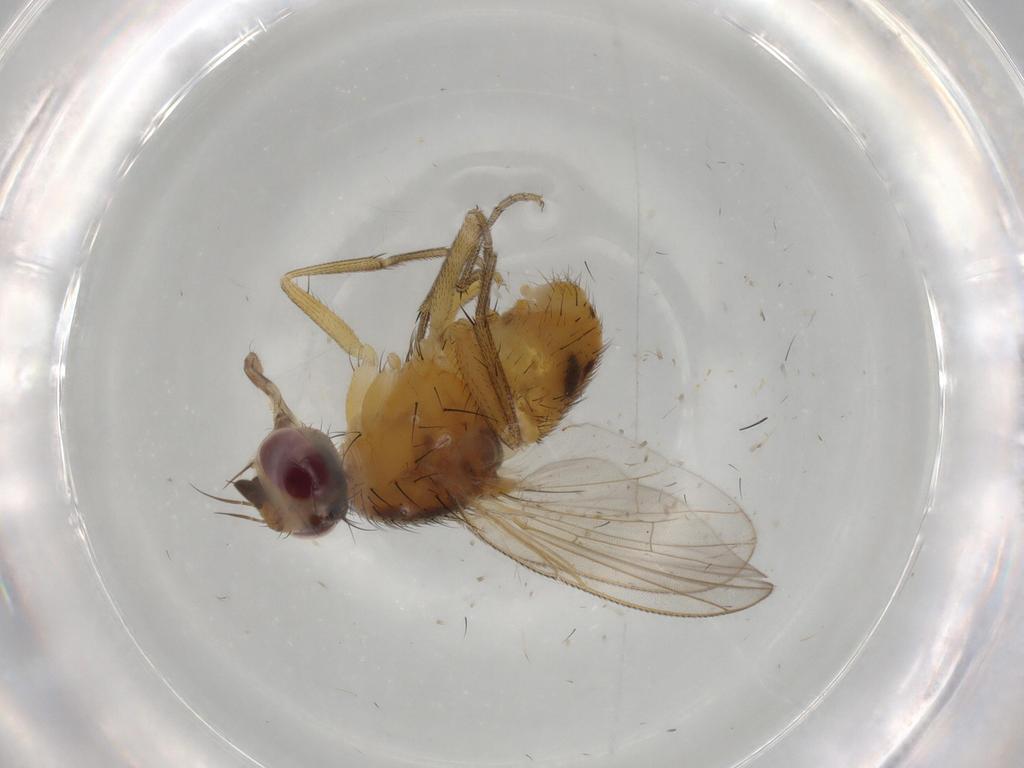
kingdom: Animalia
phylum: Arthropoda
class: Insecta
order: Diptera
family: Muscidae
